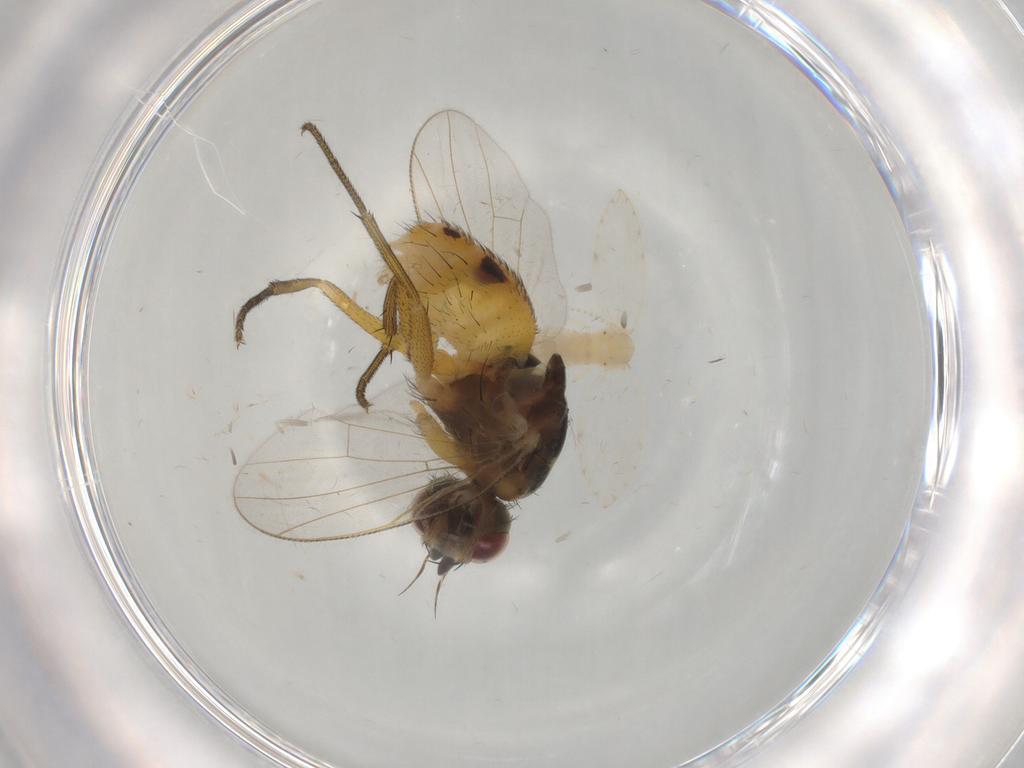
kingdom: Animalia
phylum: Arthropoda
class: Insecta
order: Diptera
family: Muscidae
